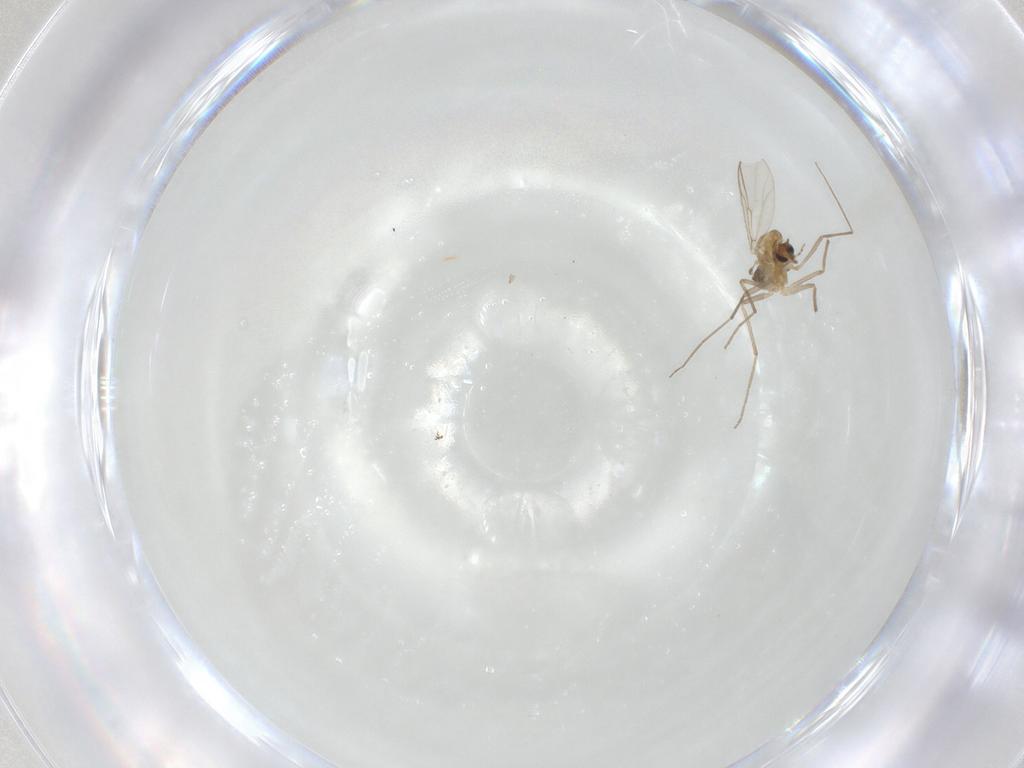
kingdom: Animalia
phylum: Arthropoda
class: Insecta
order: Diptera
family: Chironomidae
